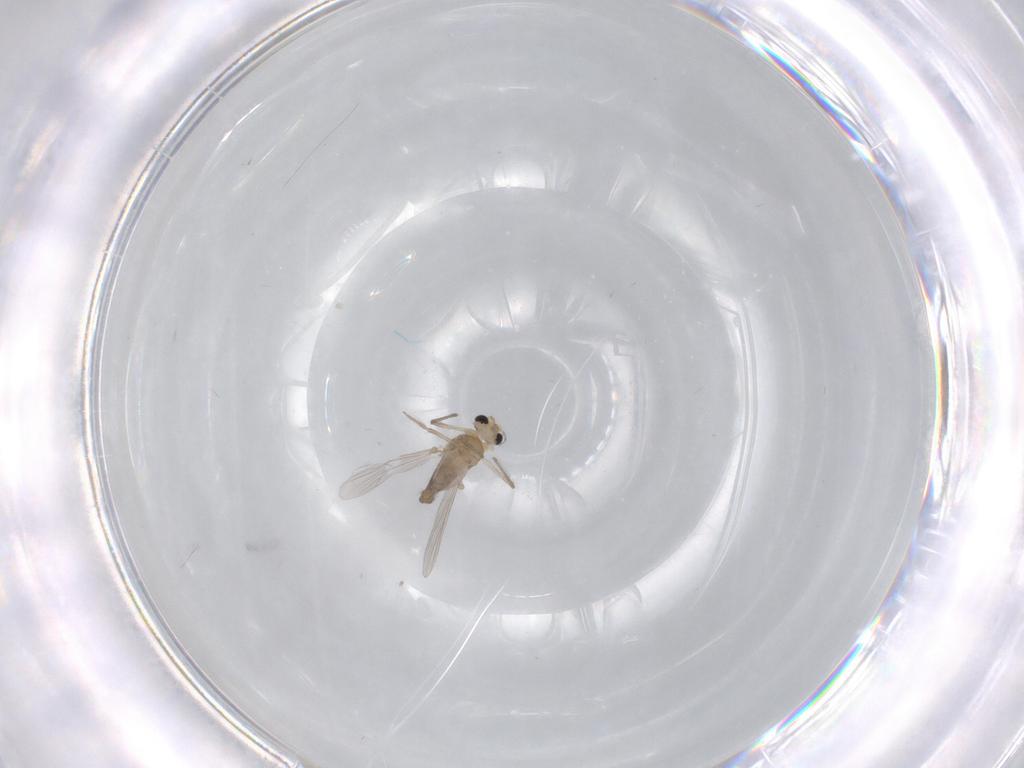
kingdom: Animalia
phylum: Arthropoda
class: Insecta
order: Diptera
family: Chironomidae
